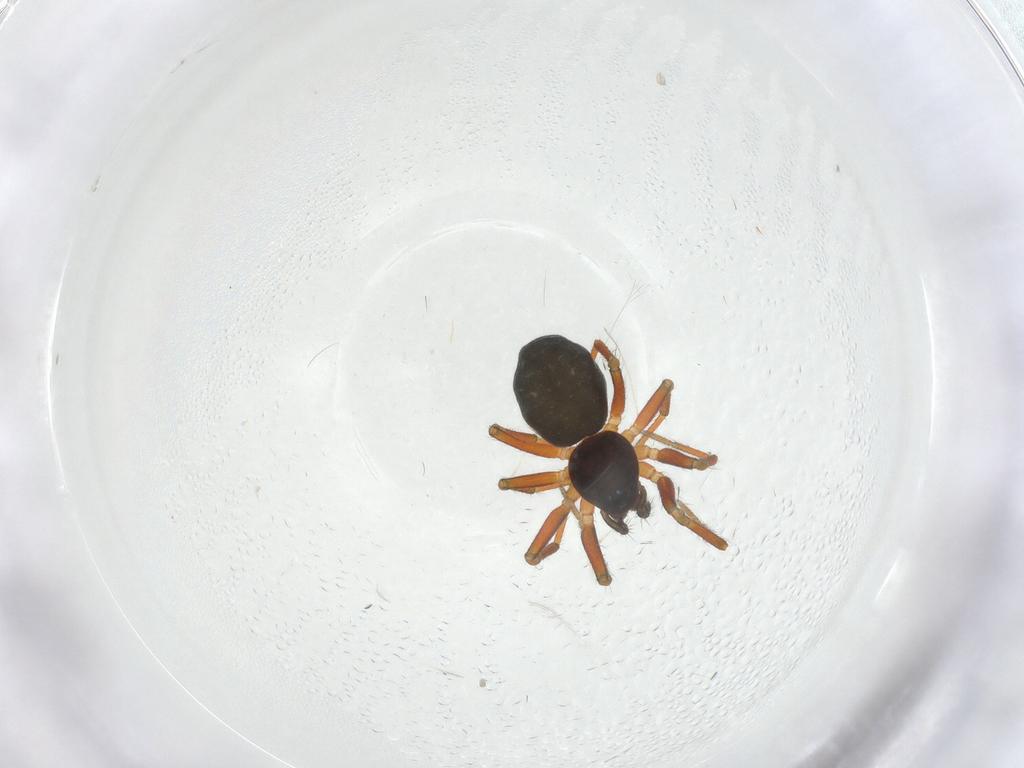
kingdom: Animalia
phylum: Arthropoda
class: Arachnida
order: Araneae
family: Linyphiidae
